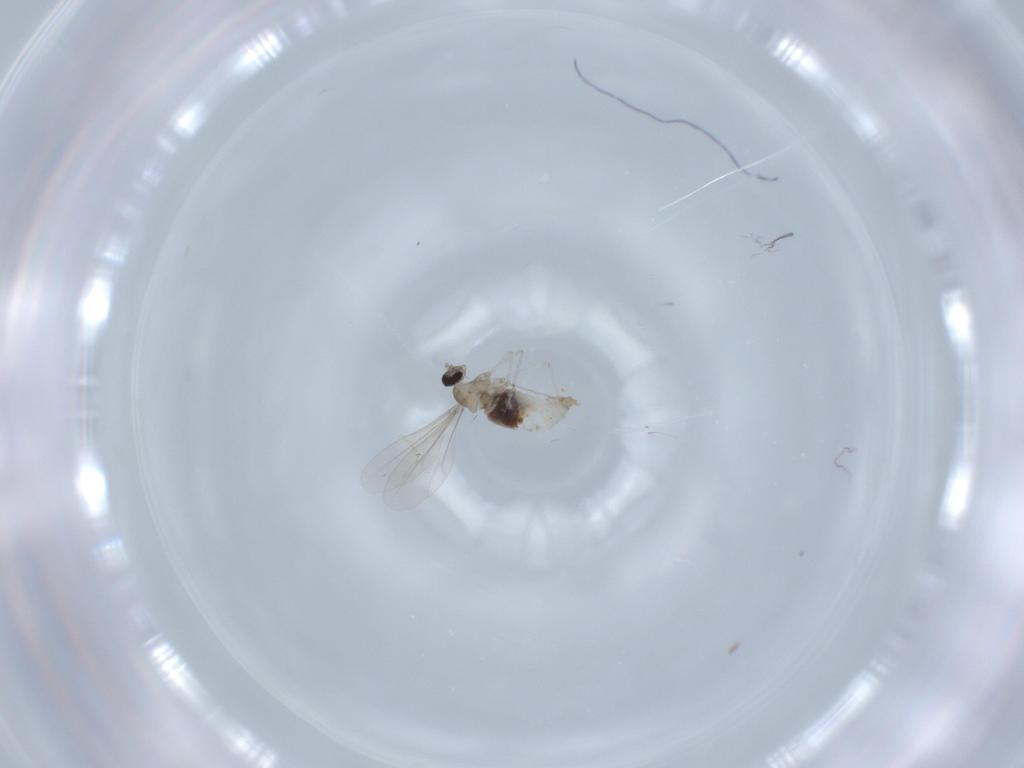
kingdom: Animalia
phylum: Arthropoda
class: Insecta
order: Diptera
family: Cecidomyiidae
